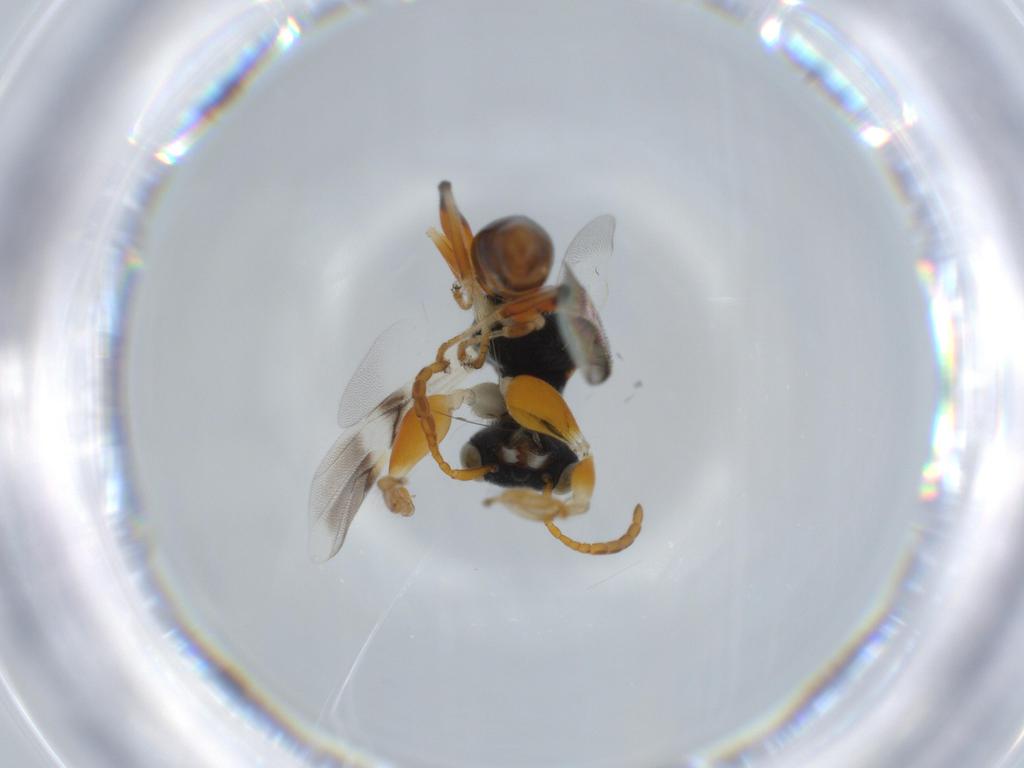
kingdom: Animalia
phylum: Arthropoda
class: Insecta
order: Hymenoptera
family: Dryinidae
